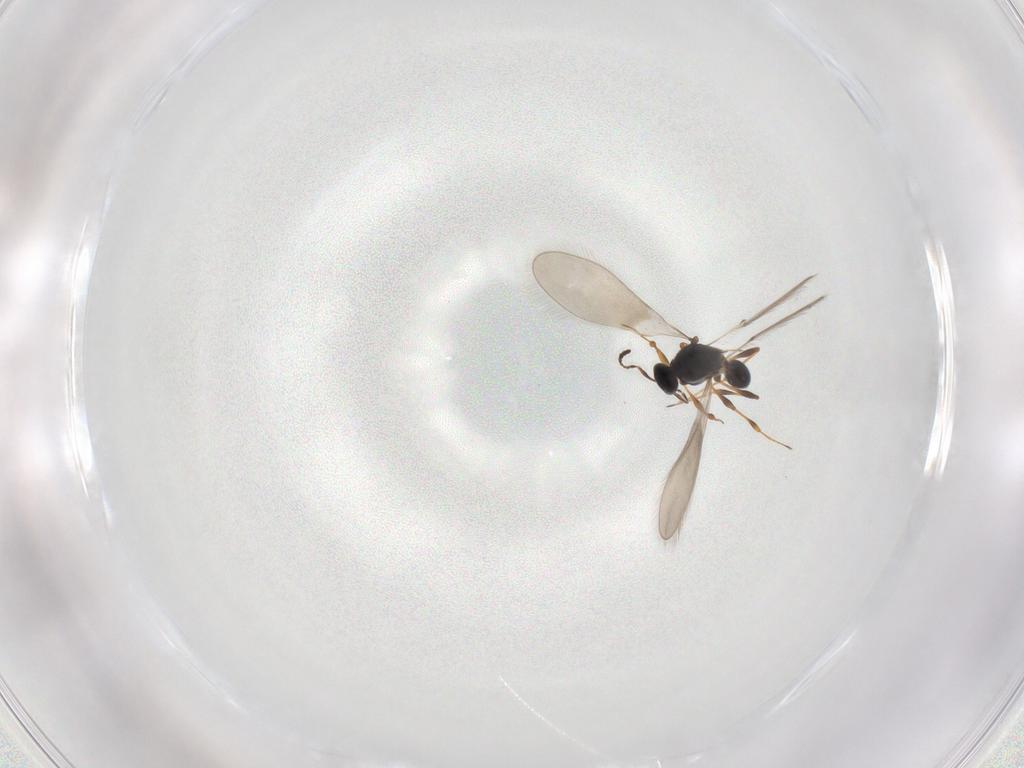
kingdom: Animalia
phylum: Arthropoda
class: Insecta
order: Hymenoptera
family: Platygastridae
